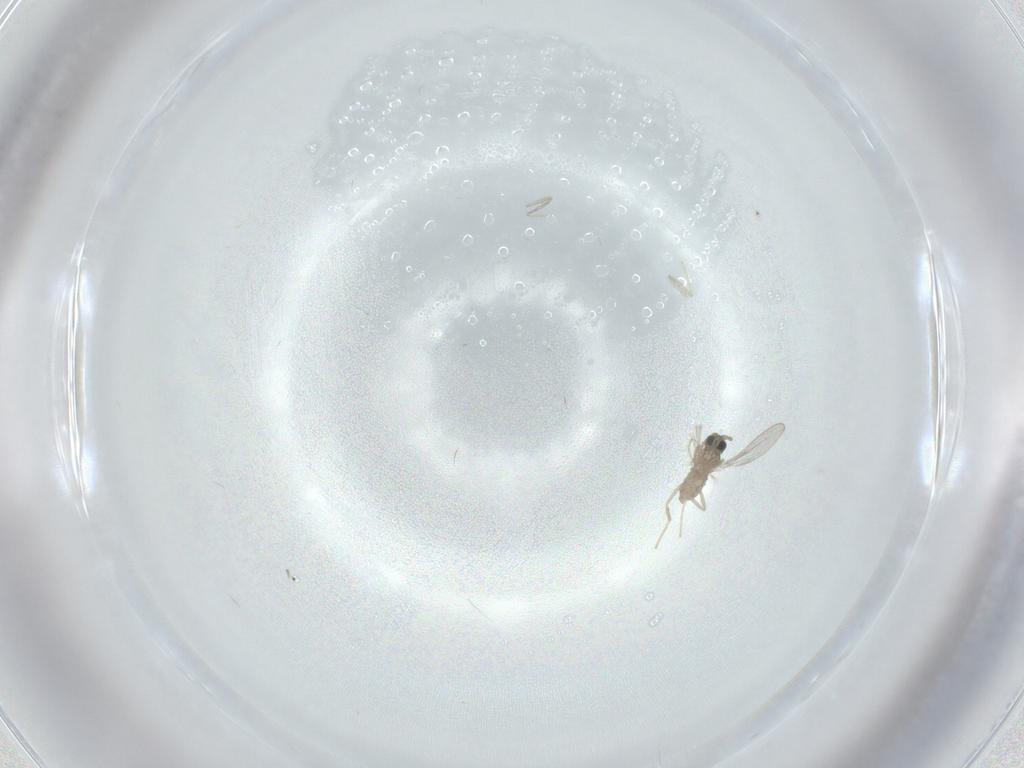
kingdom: Animalia
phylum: Arthropoda
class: Insecta
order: Diptera
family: Cecidomyiidae
